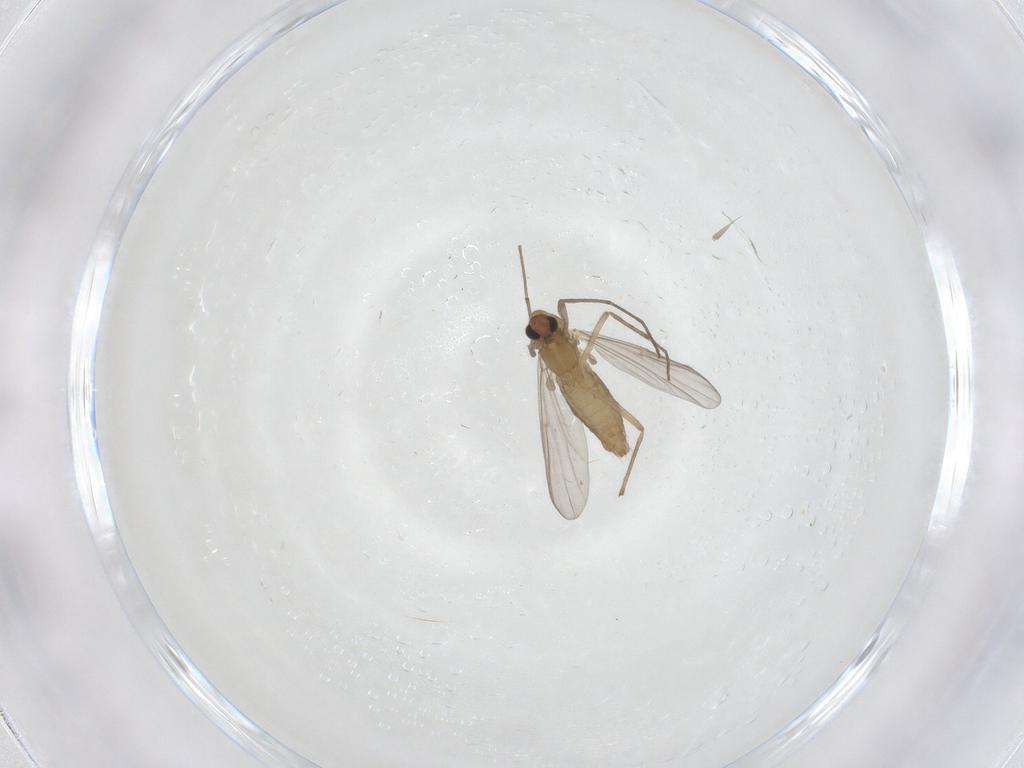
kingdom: Animalia
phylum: Arthropoda
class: Insecta
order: Diptera
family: Chironomidae
